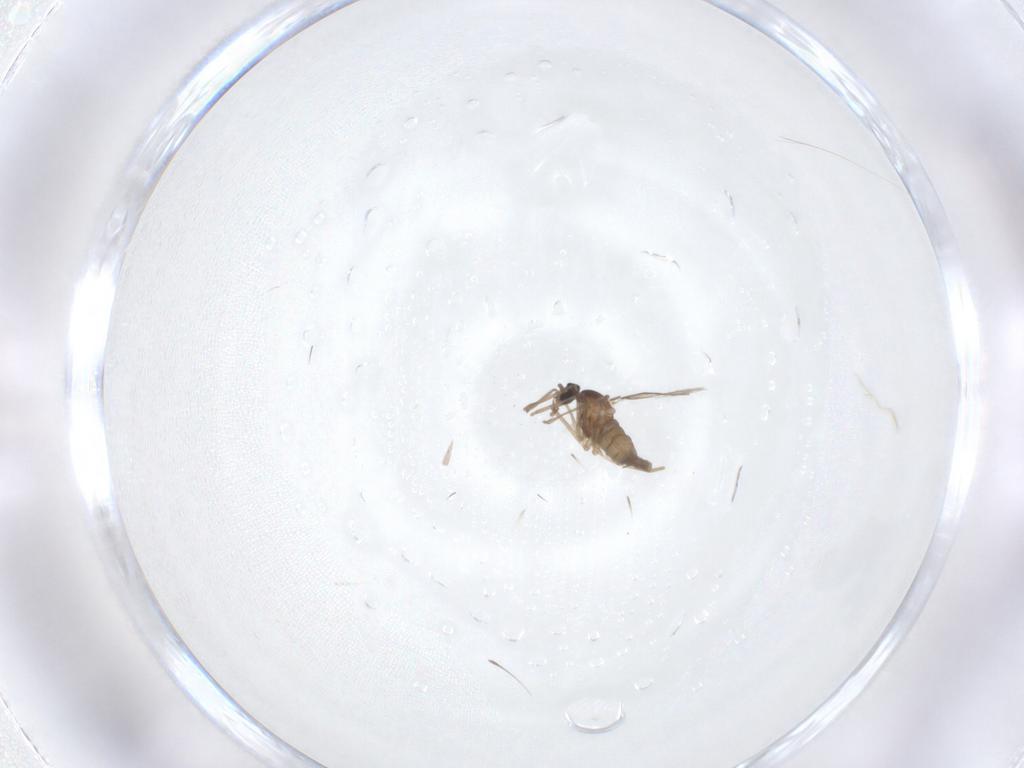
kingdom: Animalia
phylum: Arthropoda
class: Insecta
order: Diptera
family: Cecidomyiidae
